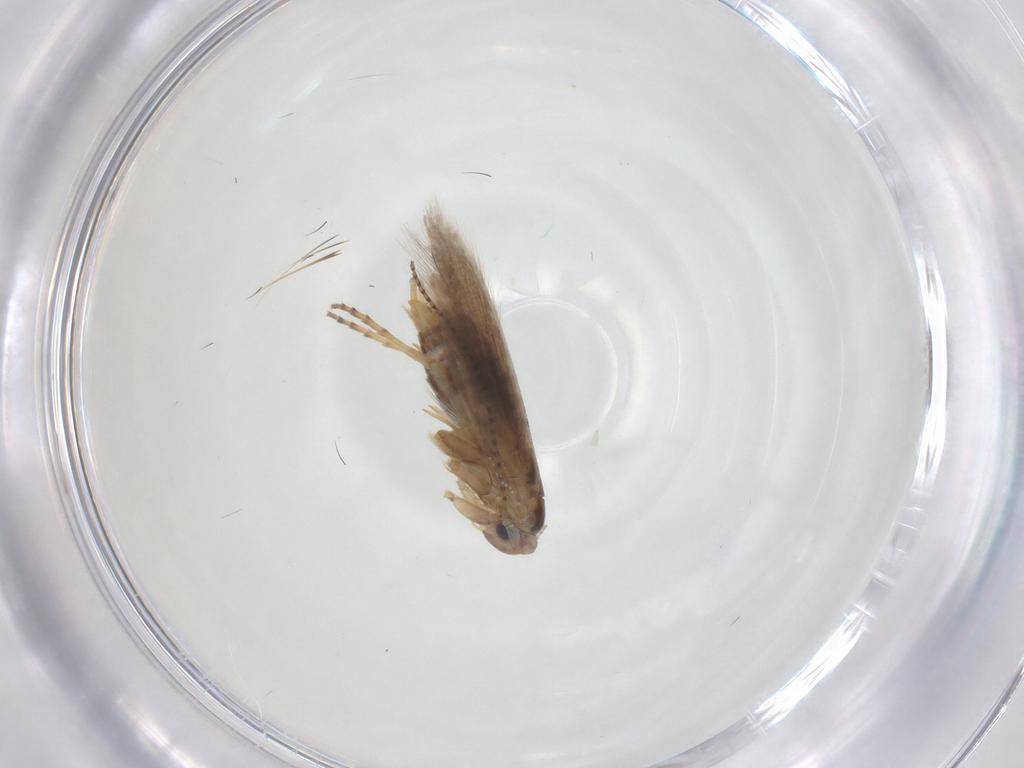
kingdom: Animalia
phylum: Arthropoda
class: Insecta
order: Lepidoptera
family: Bucculatricidae
